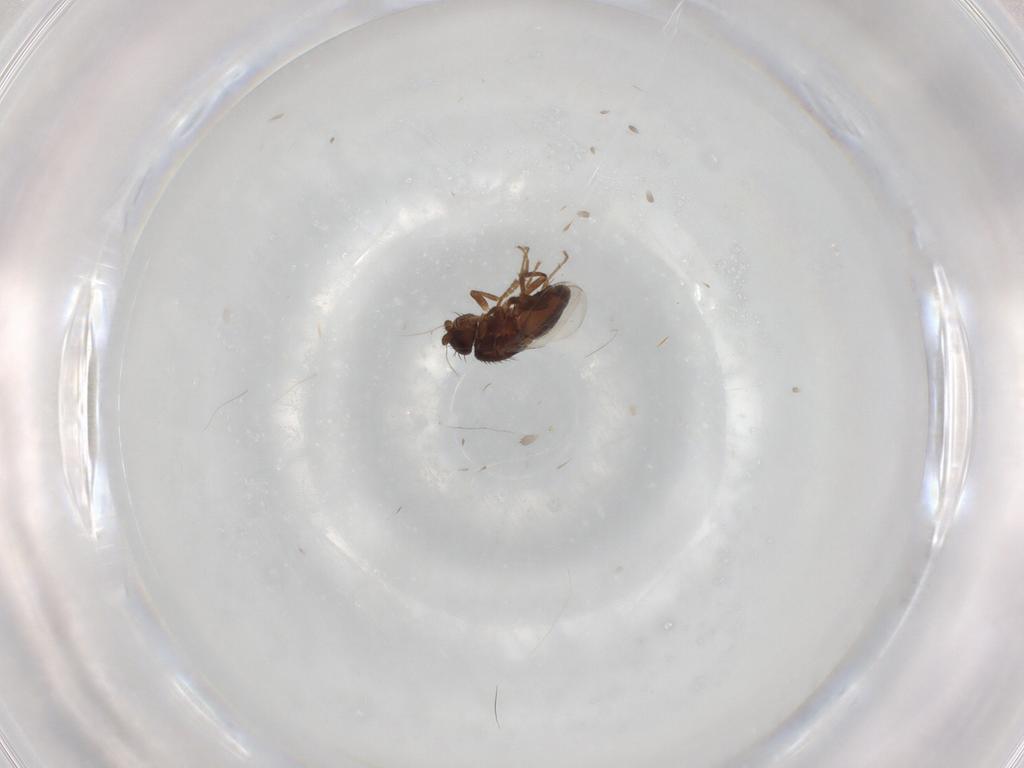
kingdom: Animalia
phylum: Arthropoda
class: Insecta
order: Diptera
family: Sphaeroceridae
